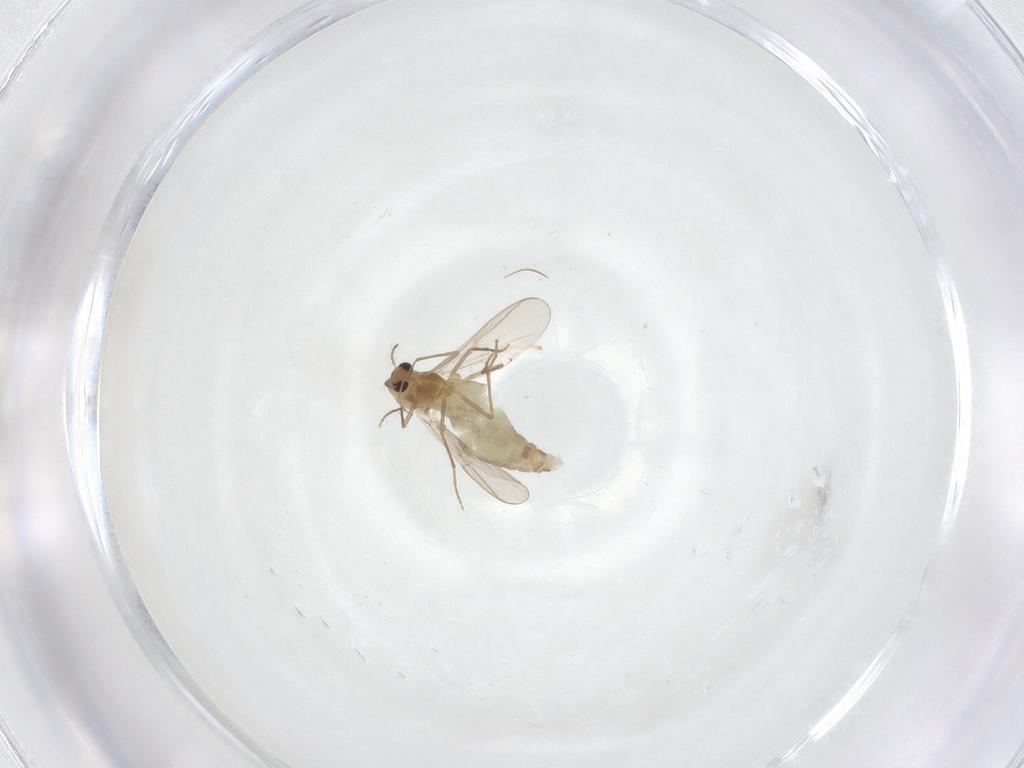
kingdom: Animalia
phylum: Arthropoda
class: Insecta
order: Diptera
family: Chironomidae
